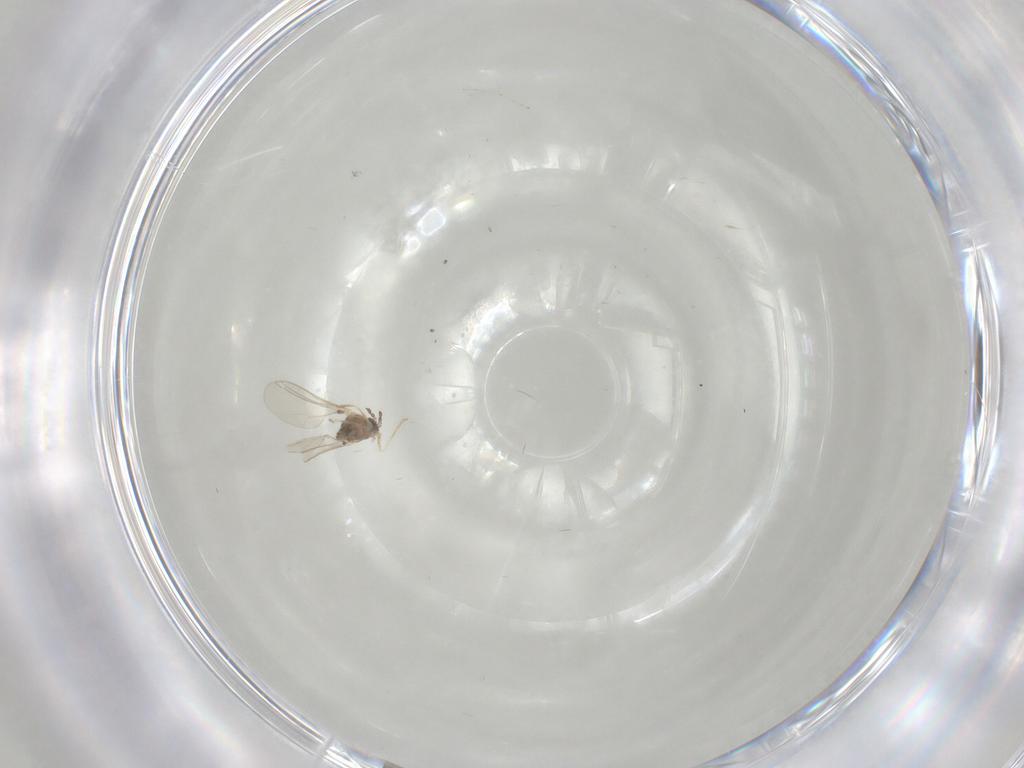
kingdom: Animalia
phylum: Arthropoda
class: Insecta
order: Diptera
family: Cecidomyiidae
